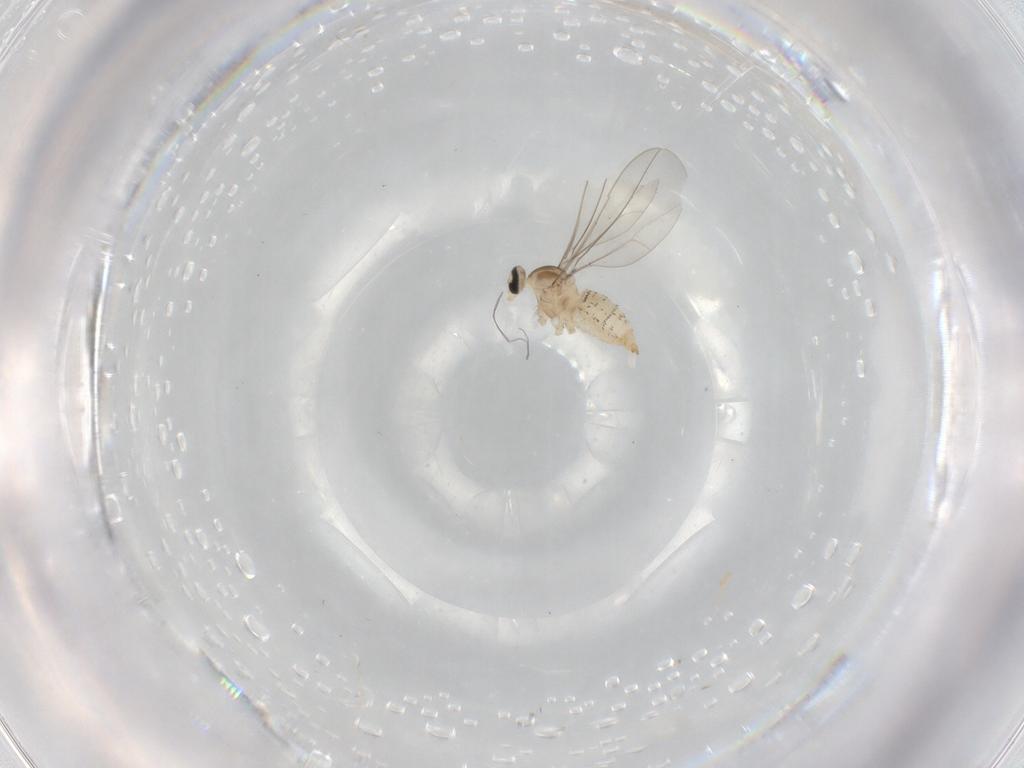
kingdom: Animalia
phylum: Arthropoda
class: Insecta
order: Diptera
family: Cecidomyiidae
